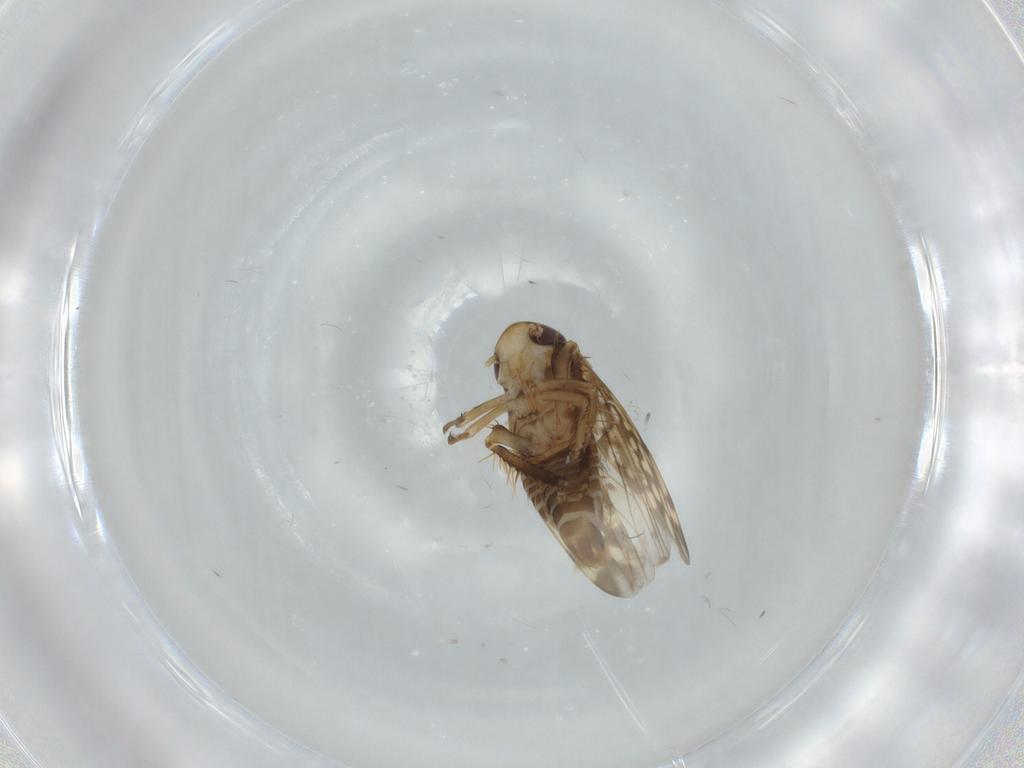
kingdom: Animalia
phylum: Arthropoda
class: Insecta
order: Hemiptera
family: Cicadellidae
